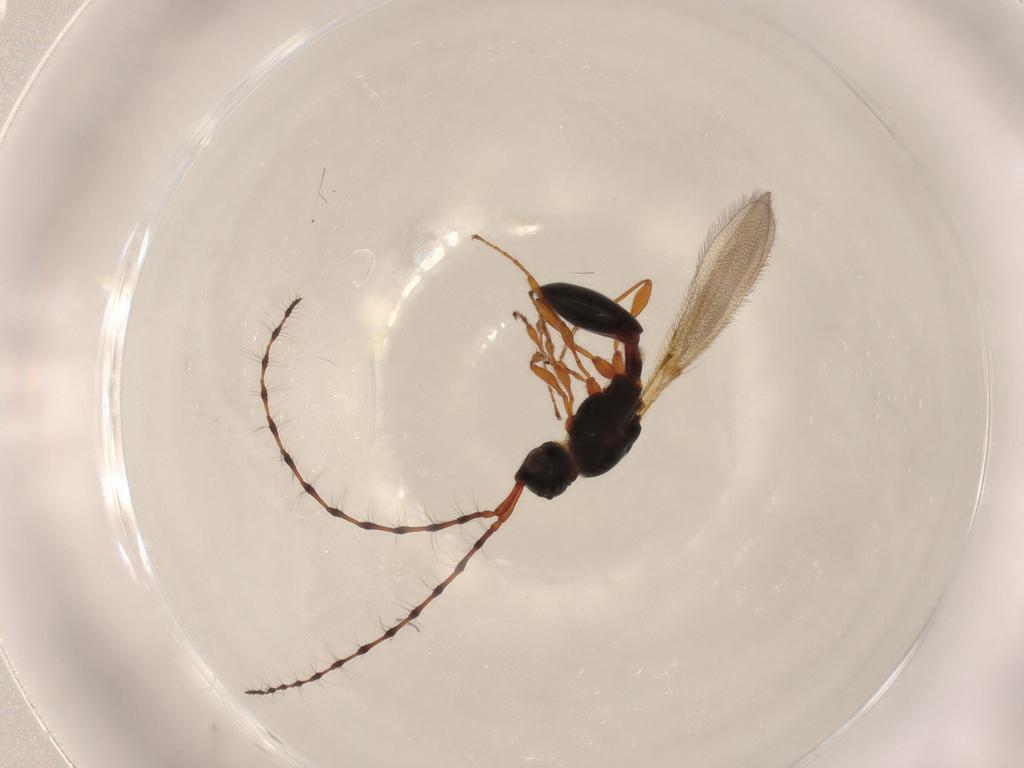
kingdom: Animalia
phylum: Arthropoda
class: Insecta
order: Hymenoptera
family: Diapriidae
